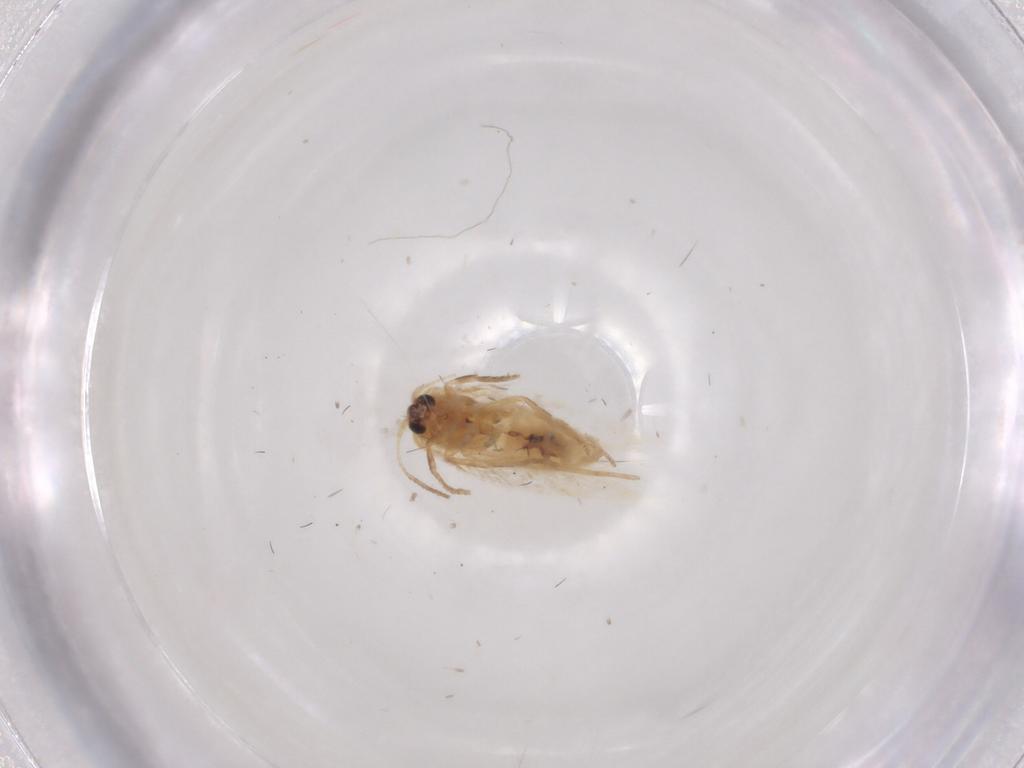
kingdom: Animalia
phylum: Arthropoda
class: Insecta
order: Lepidoptera
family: Nepticulidae
